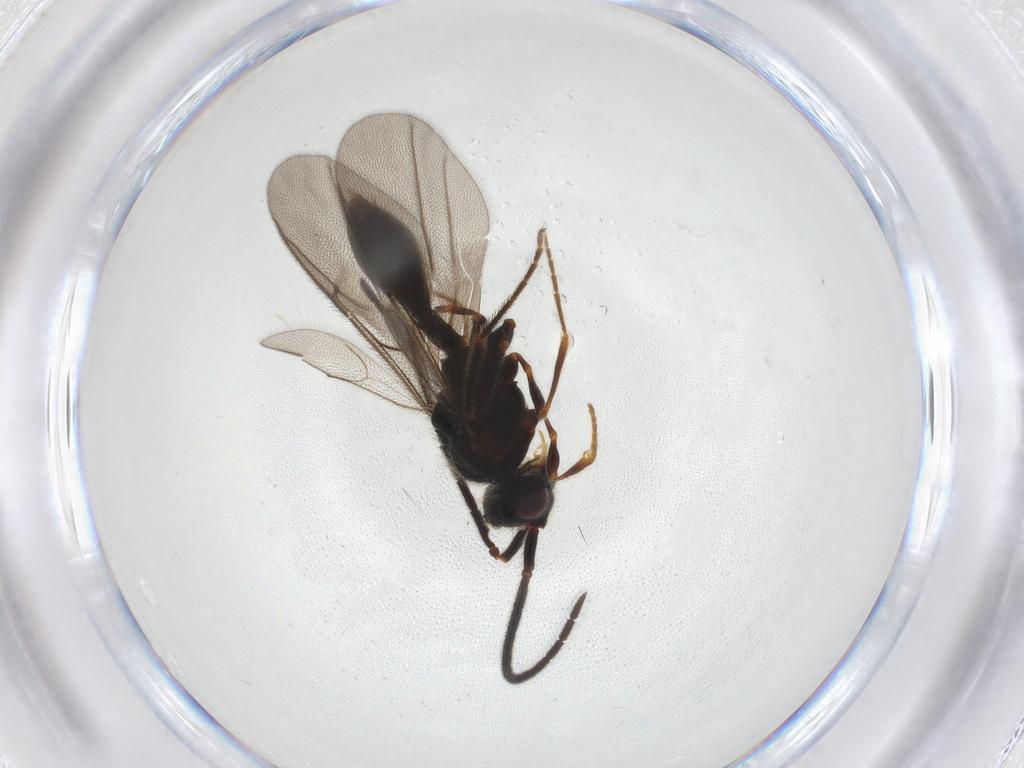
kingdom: Animalia
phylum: Arthropoda
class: Insecta
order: Hymenoptera
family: Diapriidae
